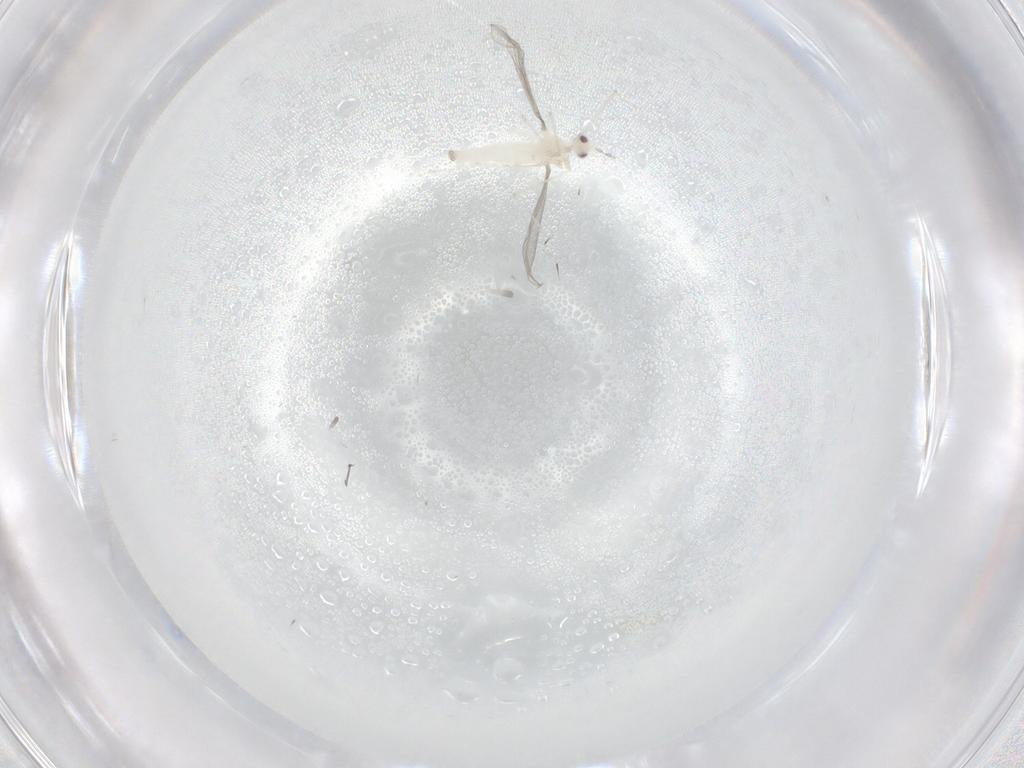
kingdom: Animalia
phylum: Arthropoda
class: Insecta
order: Diptera
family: Cecidomyiidae
